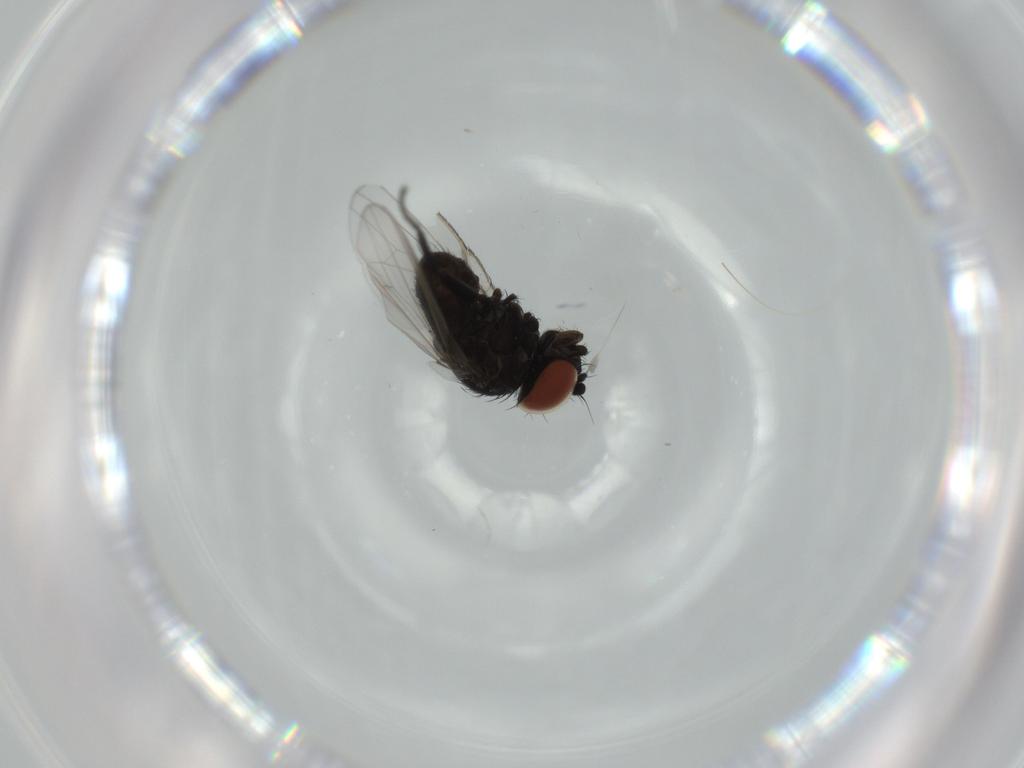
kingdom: Animalia
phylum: Arthropoda
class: Insecta
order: Diptera
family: Milichiidae
